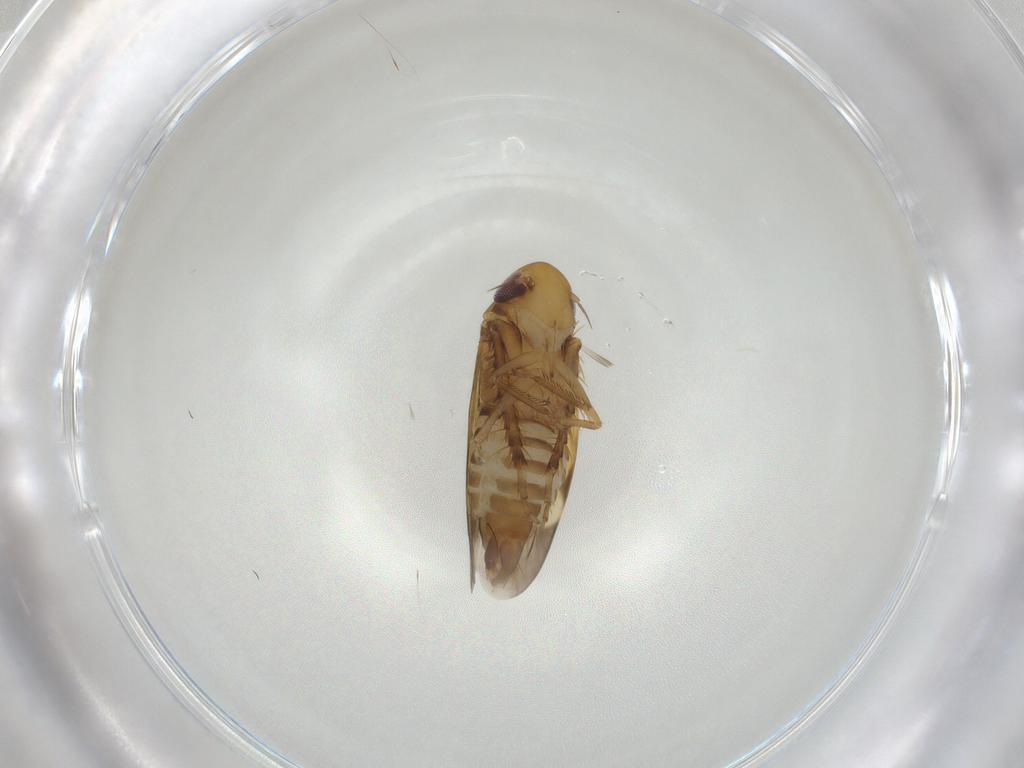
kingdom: Animalia
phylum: Arthropoda
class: Insecta
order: Hemiptera
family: Cicadellidae
